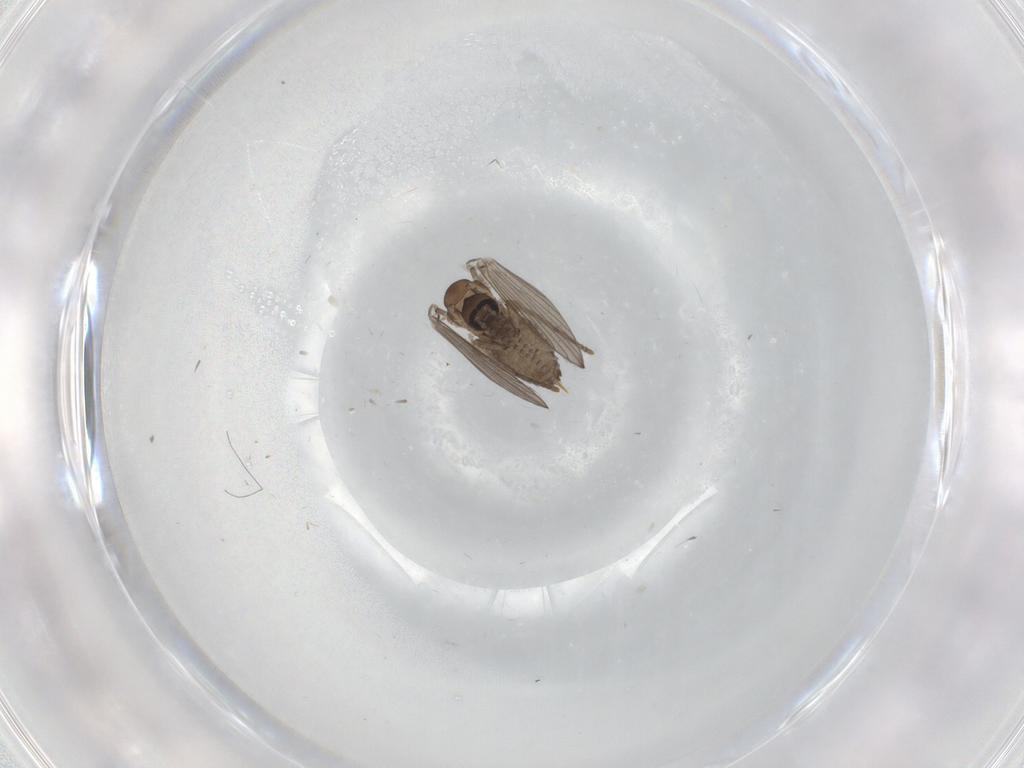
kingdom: Animalia
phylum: Arthropoda
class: Insecta
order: Diptera
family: Psychodidae
